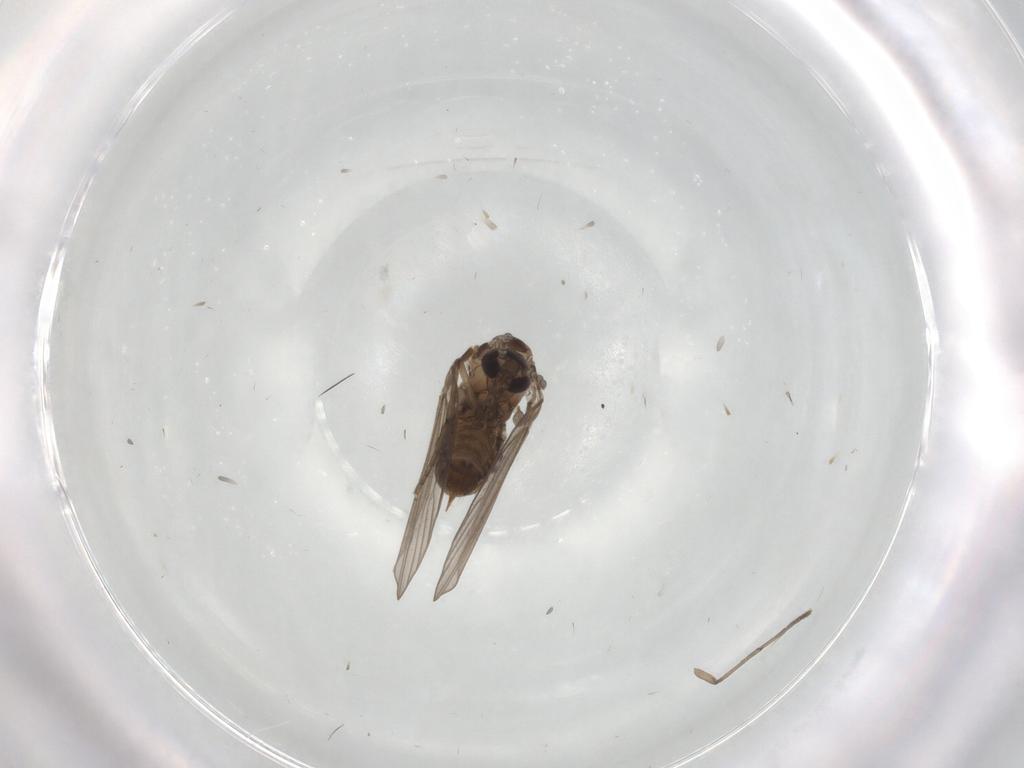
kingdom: Animalia
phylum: Arthropoda
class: Insecta
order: Diptera
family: Psychodidae
